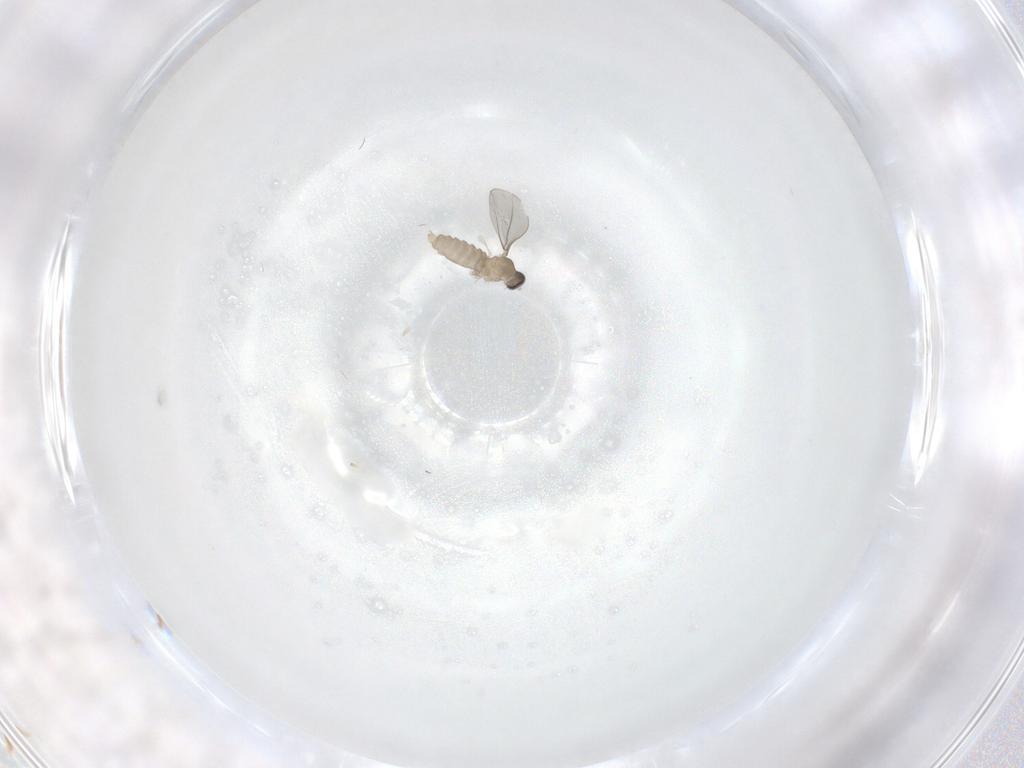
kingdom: Animalia
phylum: Arthropoda
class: Insecta
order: Diptera
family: Cecidomyiidae
